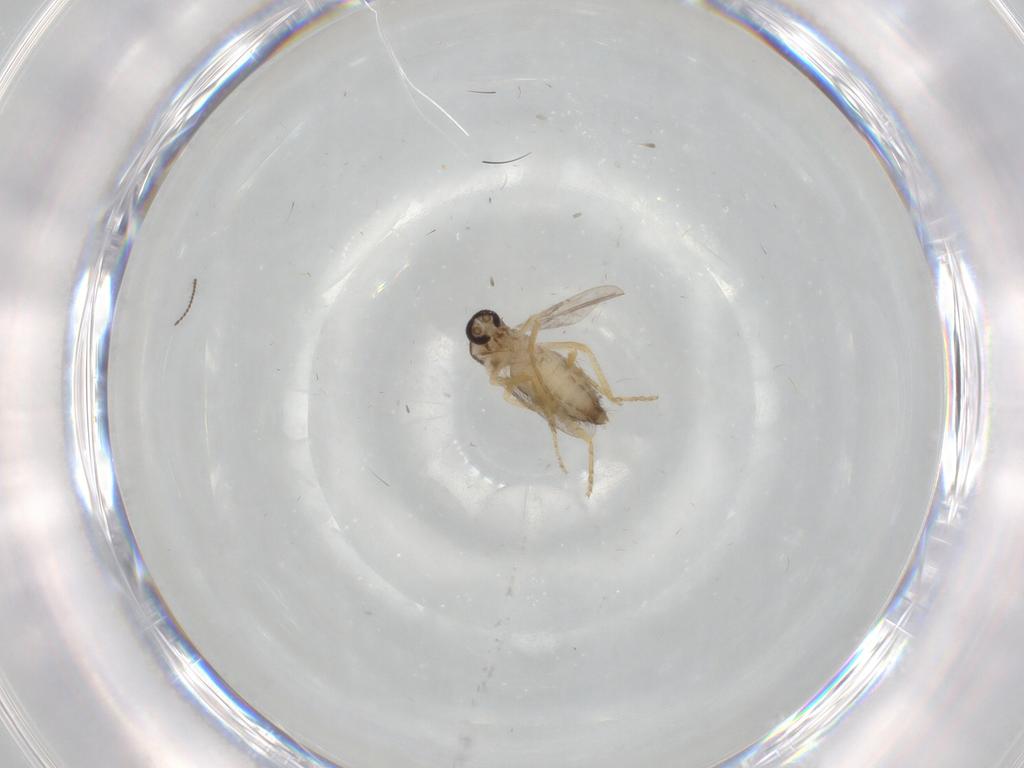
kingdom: Animalia
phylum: Arthropoda
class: Insecta
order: Diptera
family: Ceratopogonidae
